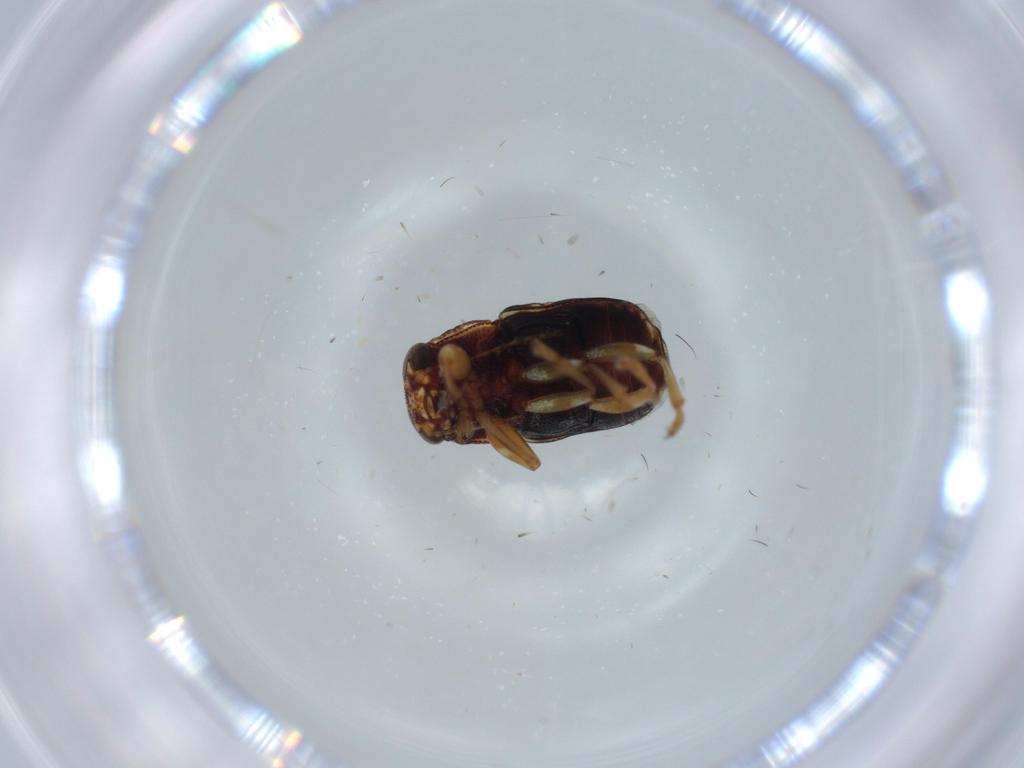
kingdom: Animalia
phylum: Arthropoda
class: Insecta
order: Coleoptera
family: Chrysomelidae
